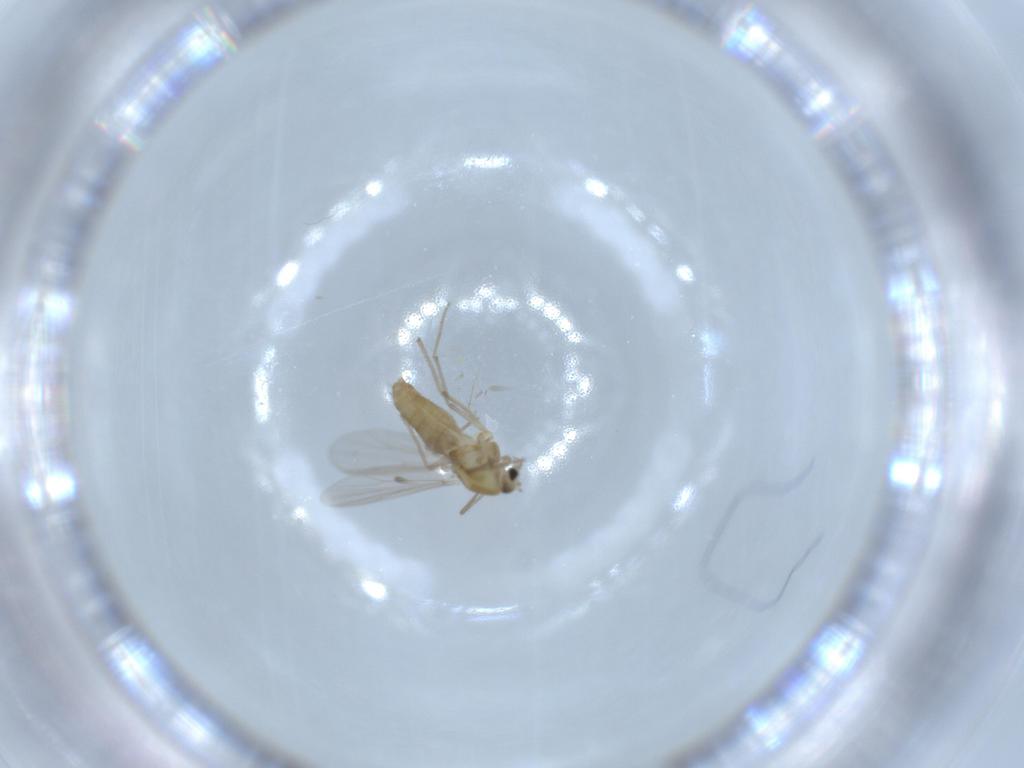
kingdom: Animalia
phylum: Arthropoda
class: Insecta
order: Diptera
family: Chironomidae
